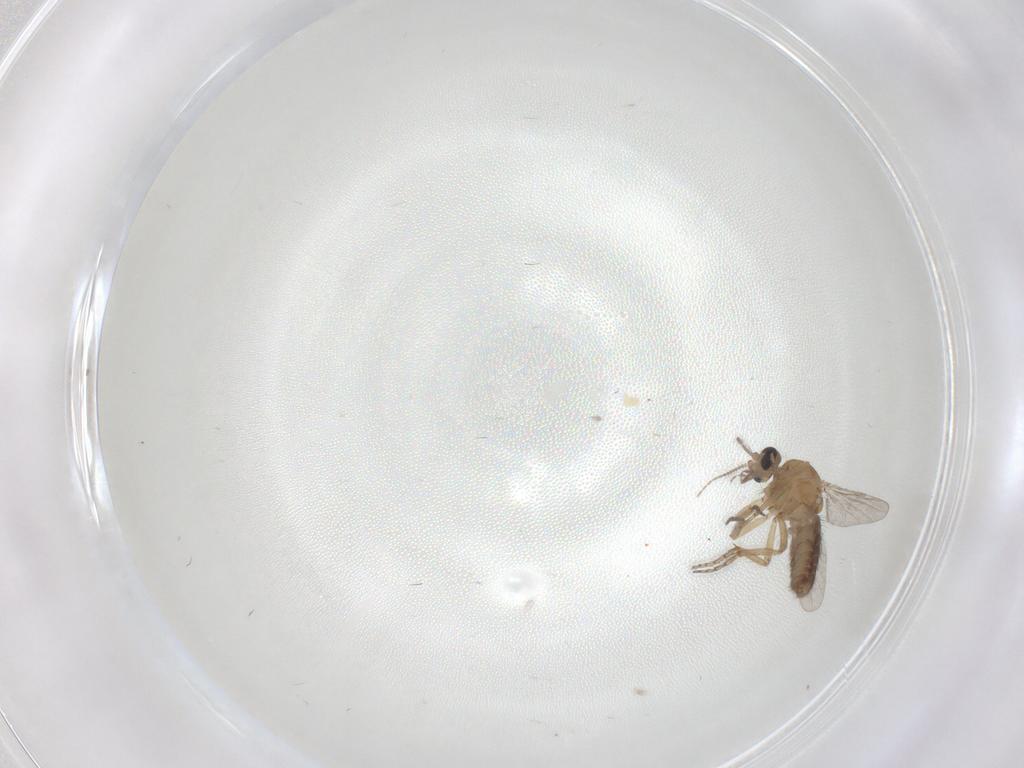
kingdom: Animalia
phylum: Arthropoda
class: Insecta
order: Diptera
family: Ceratopogonidae
